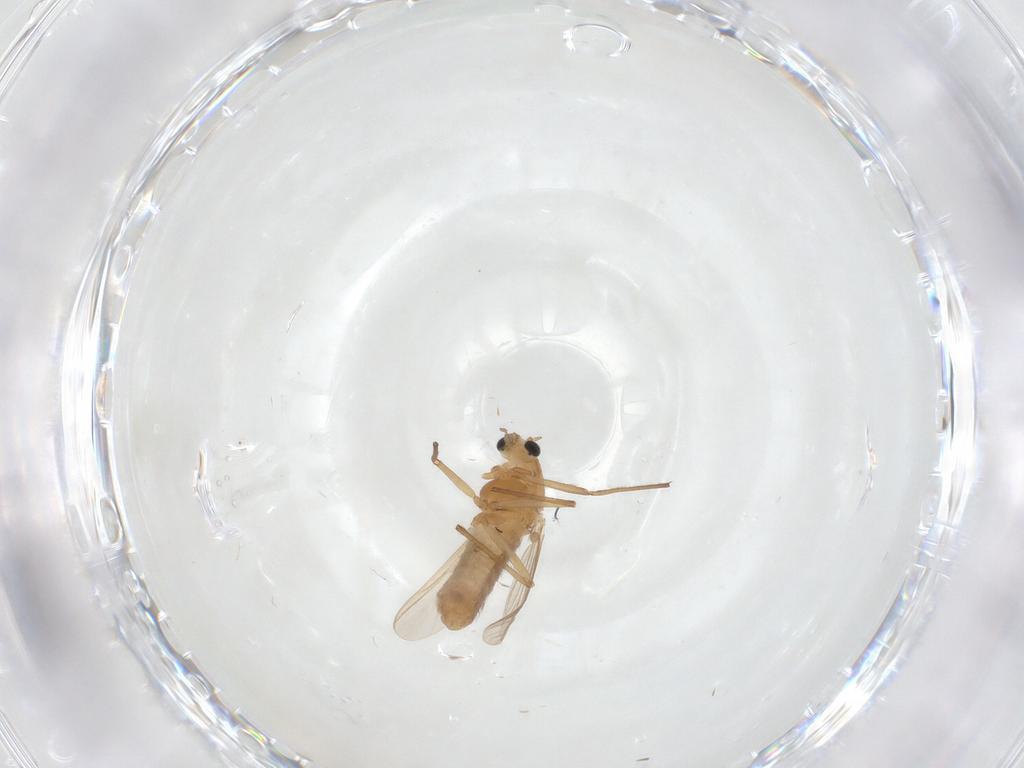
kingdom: Animalia
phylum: Arthropoda
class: Insecta
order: Diptera
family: Chironomidae
